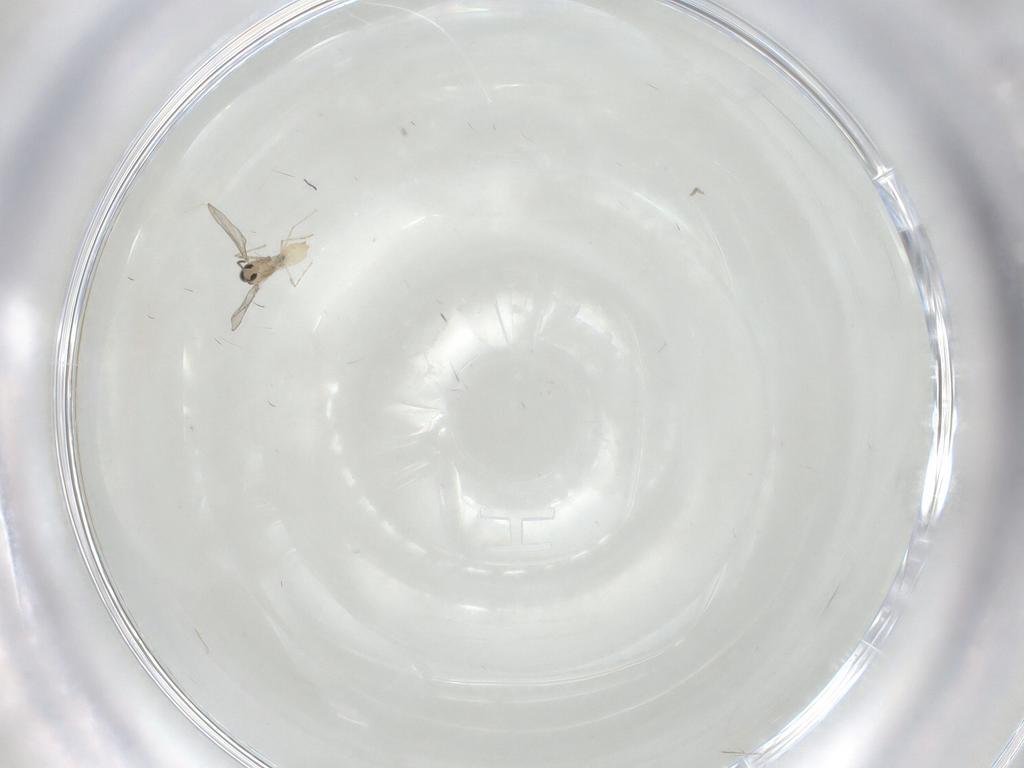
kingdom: Animalia
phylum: Arthropoda
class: Insecta
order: Diptera
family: Cecidomyiidae
